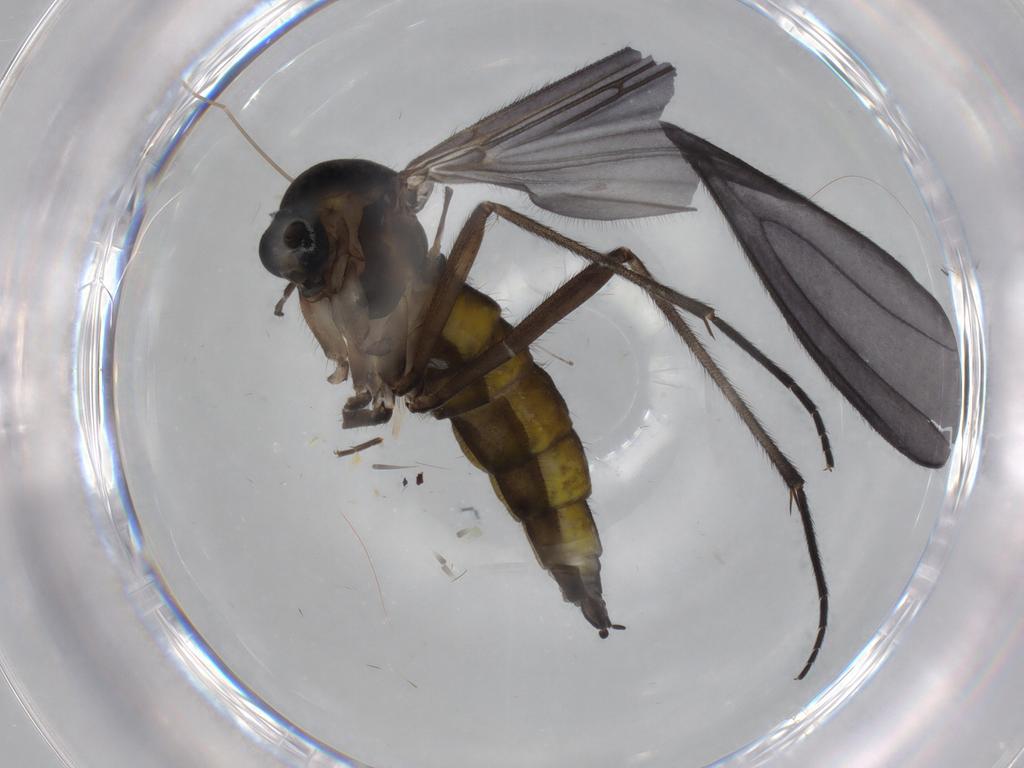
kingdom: Animalia
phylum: Arthropoda
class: Insecta
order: Diptera
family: Sciaridae
